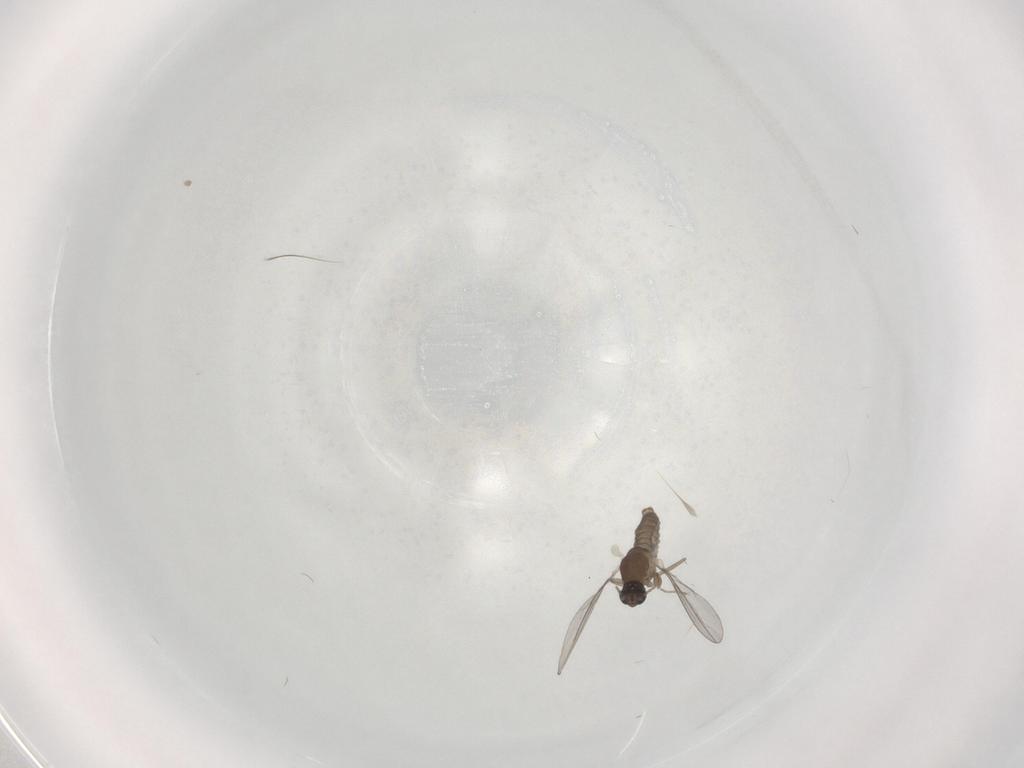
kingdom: Animalia
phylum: Arthropoda
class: Insecta
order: Diptera
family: Cecidomyiidae
